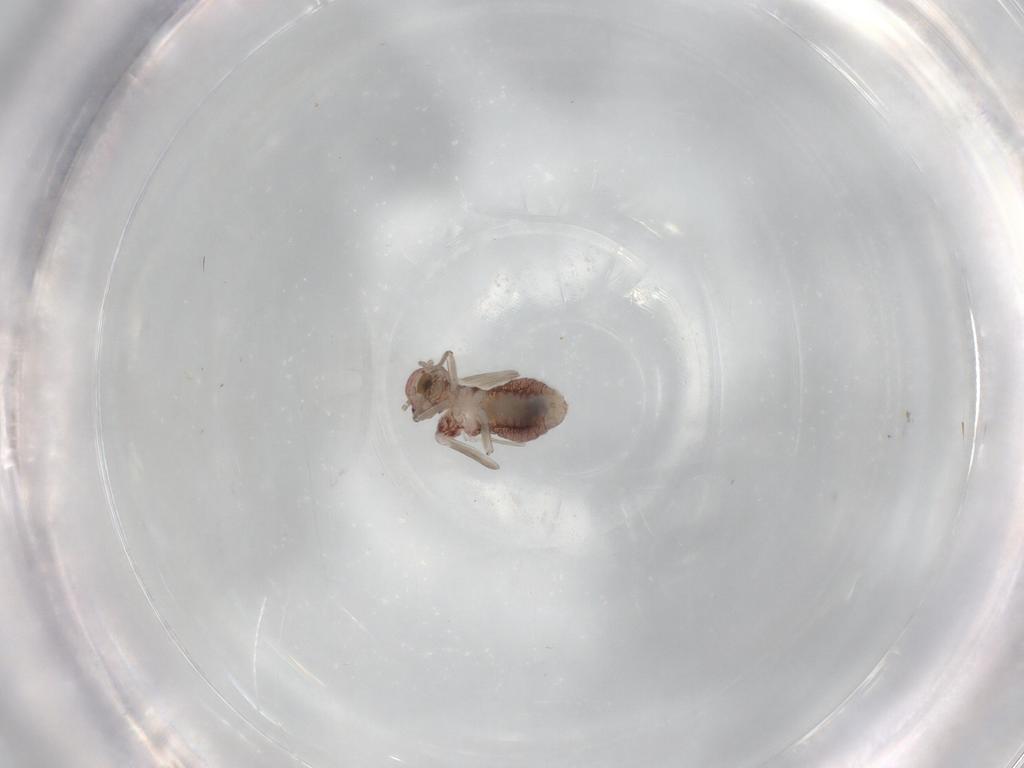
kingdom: Animalia
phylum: Arthropoda
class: Insecta
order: Psocodea
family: Peripsocidae
